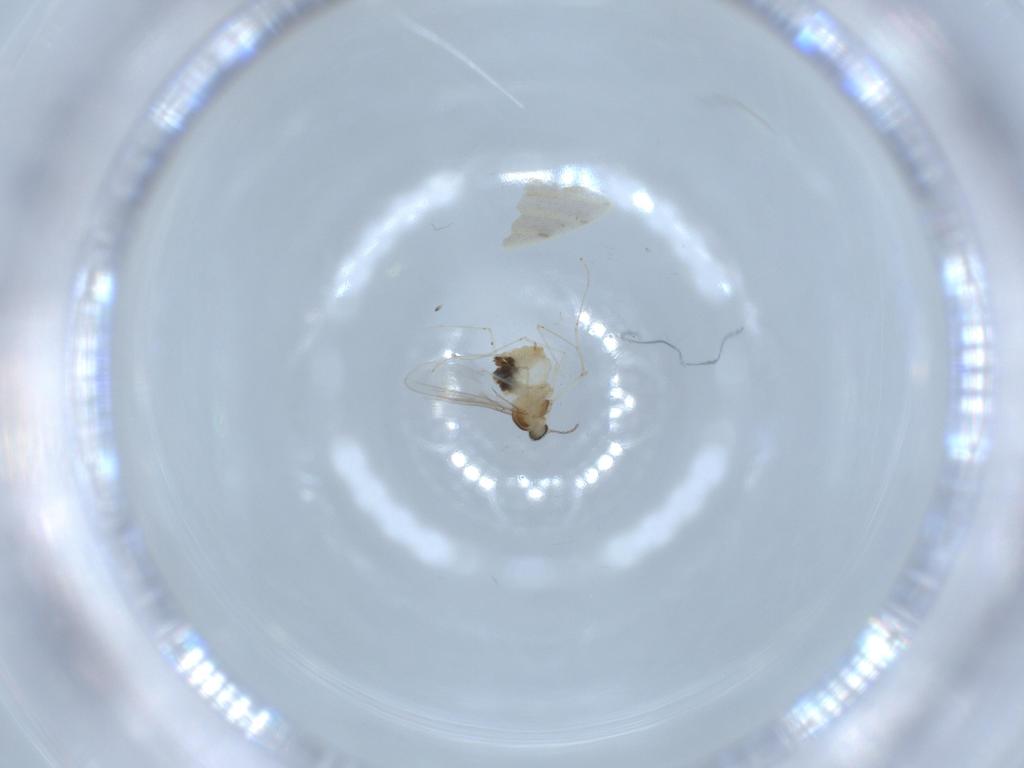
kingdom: Animalia
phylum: Arthropoda
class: Insecta
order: Diptera
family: Cecidomyiidae
